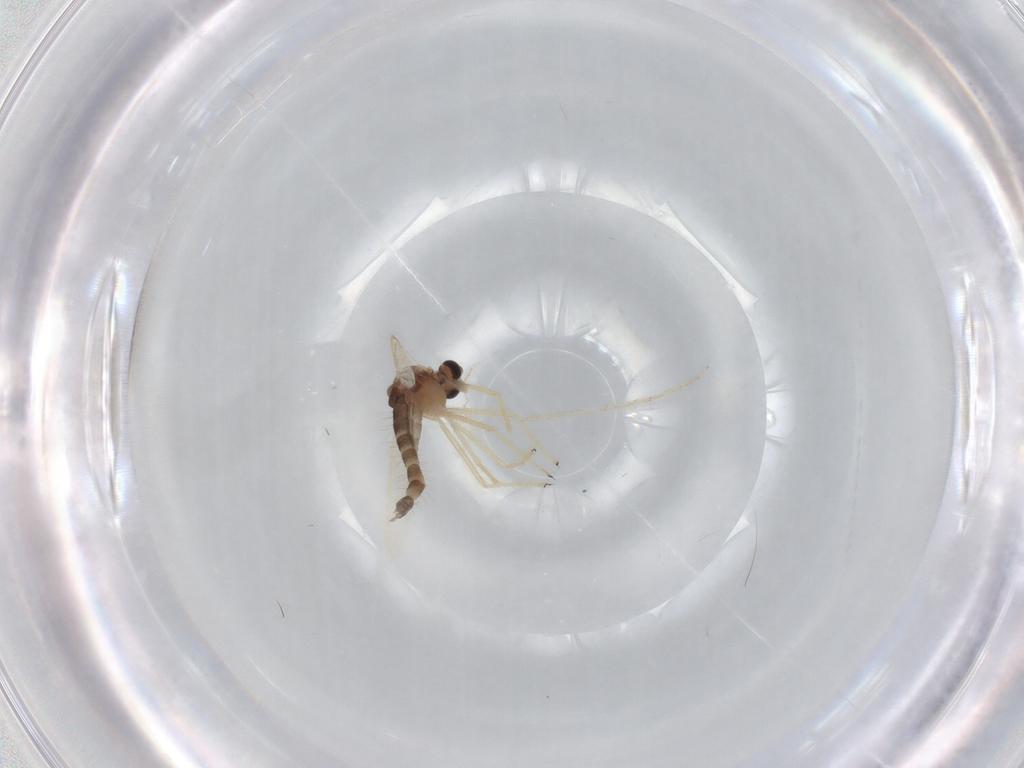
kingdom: Animalia
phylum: Arthropoda
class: Insecta
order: Diptera
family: Chironomidae
